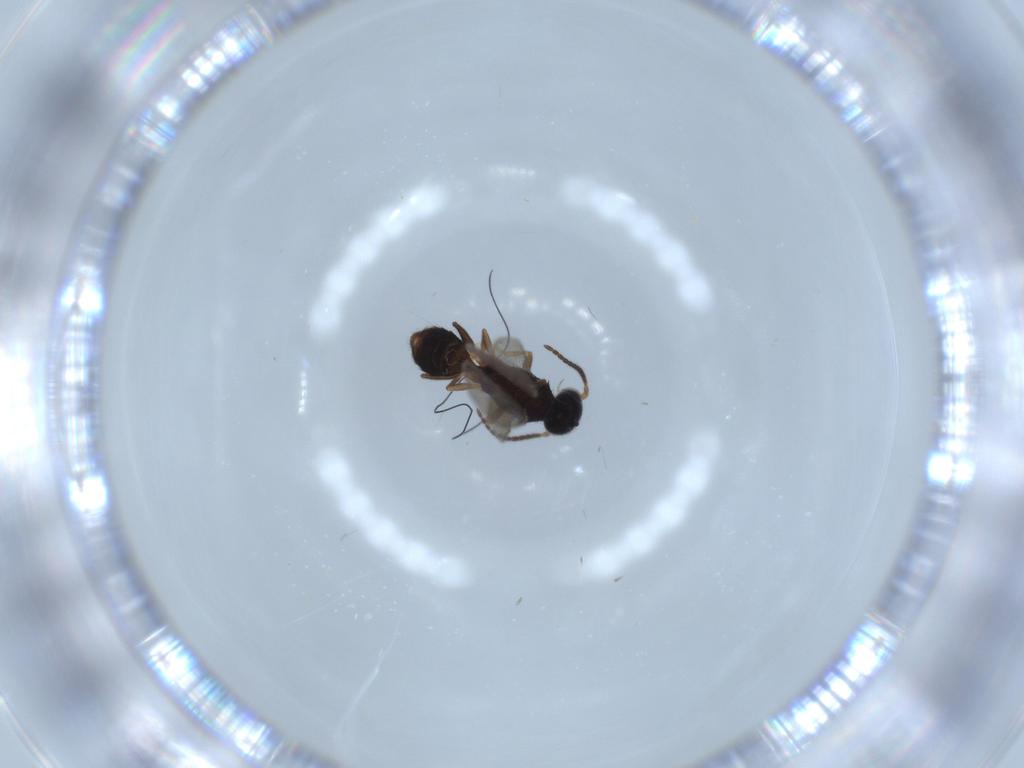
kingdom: Animalia
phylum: Arthropoda
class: Insecta
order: Hymenoptera
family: Bethylidae
